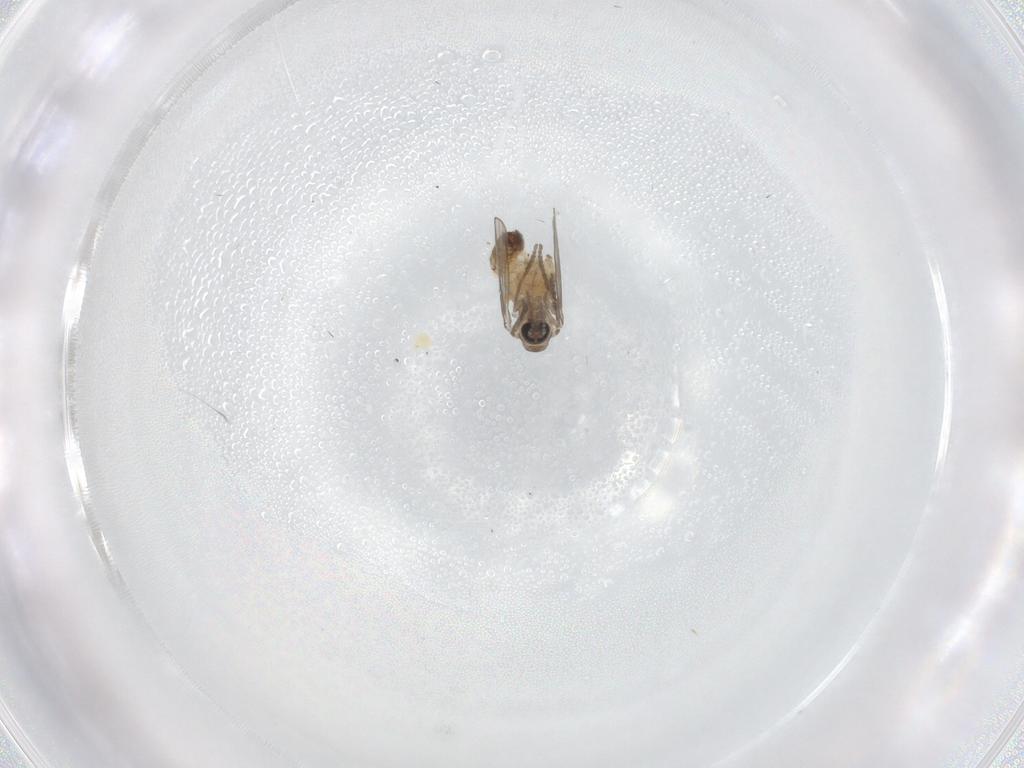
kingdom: Animalia
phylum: Arthropoda
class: Insecta
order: Diptera
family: Psychodidae
